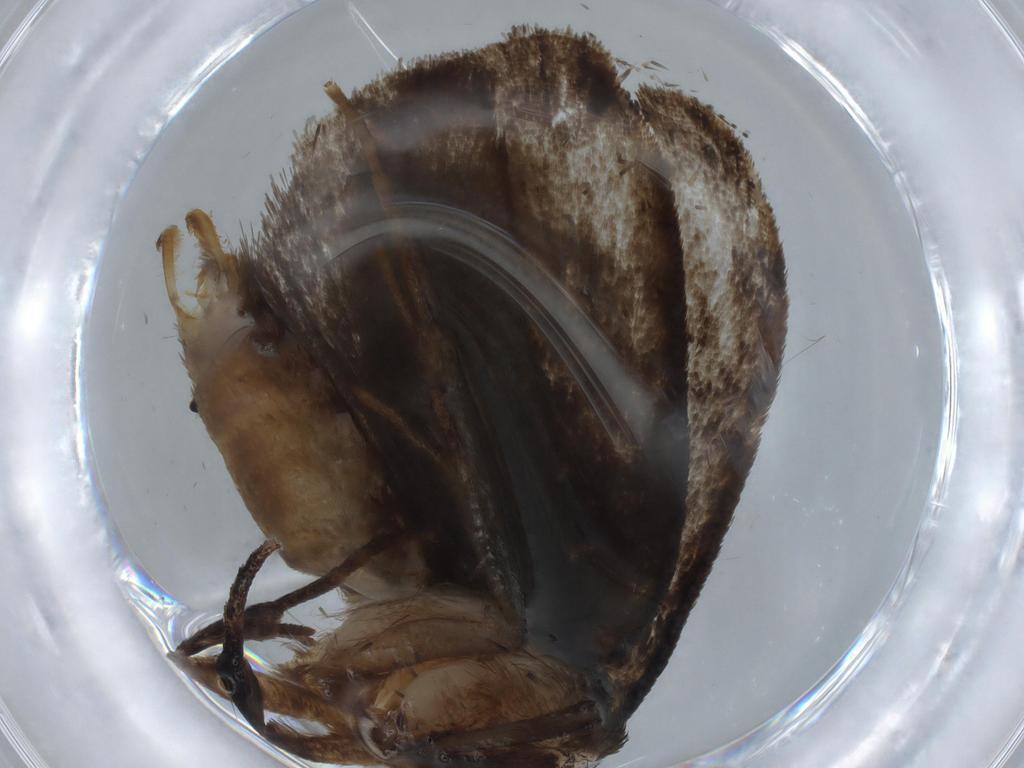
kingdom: Animalia
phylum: Arthropoda
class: Insecta
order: Lepidoptera
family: Tineidae
